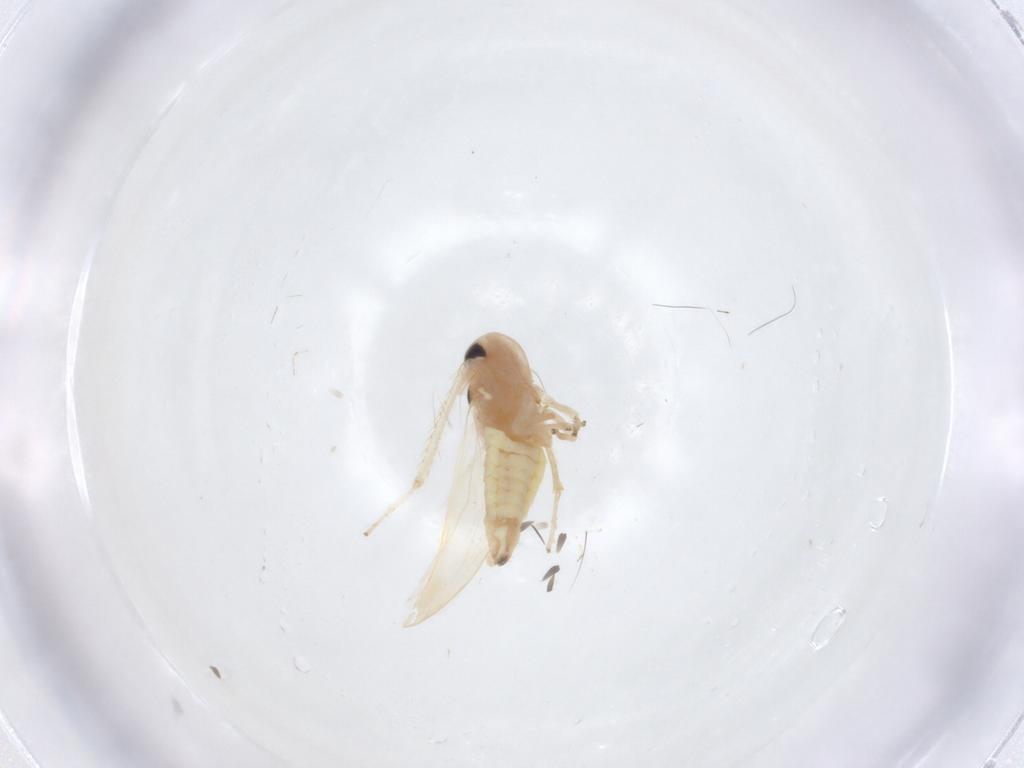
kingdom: Animalia
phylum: Arthropoda
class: Insecta
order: Hemiptera
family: Cicadellidae
